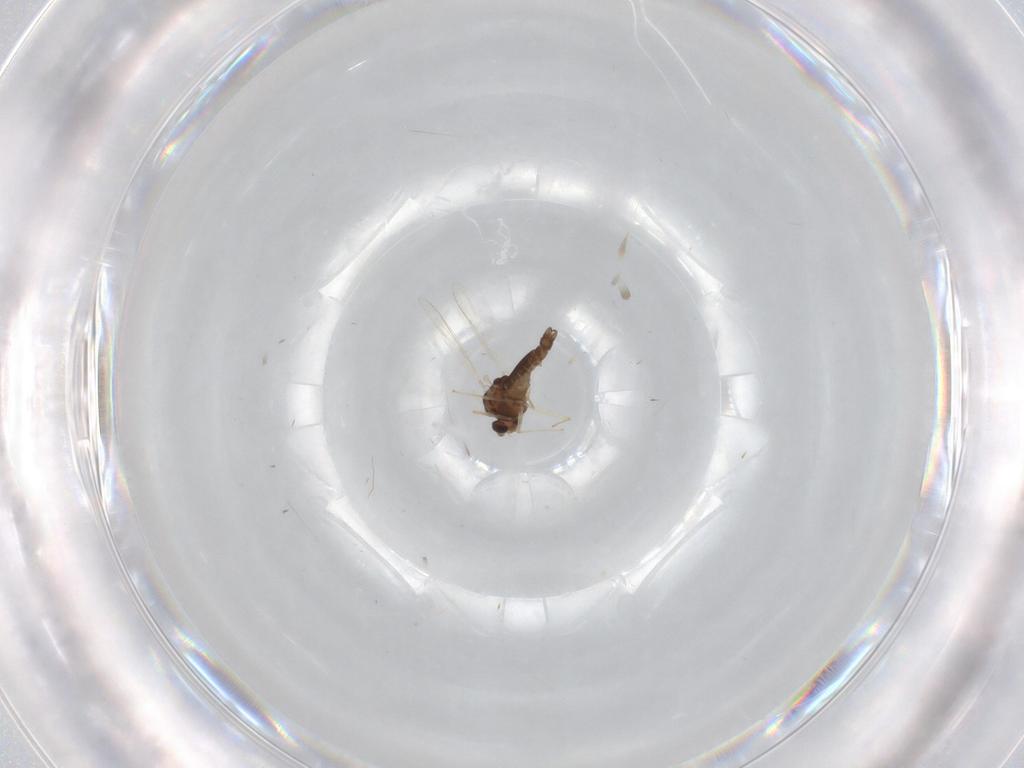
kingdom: Animalia
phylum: Arthropoda
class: Insecta
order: Diptera
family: Chironomidae
